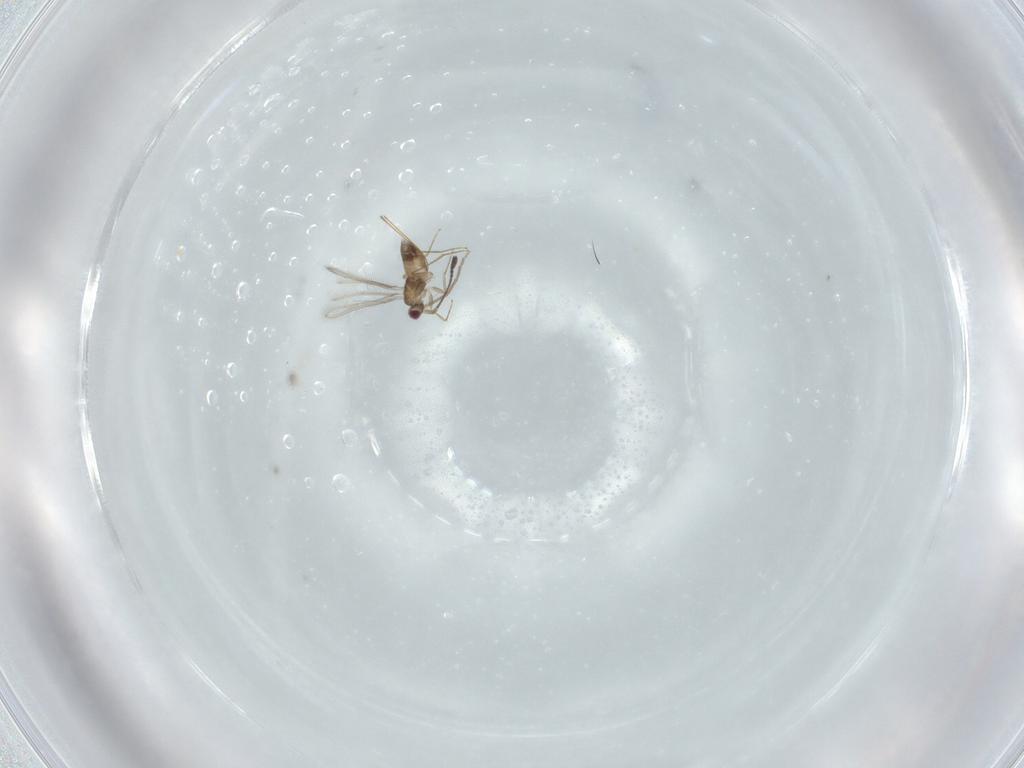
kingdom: Animalia
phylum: Arthropoda
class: Insecta
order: Hymenoptera
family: Mymaridae
